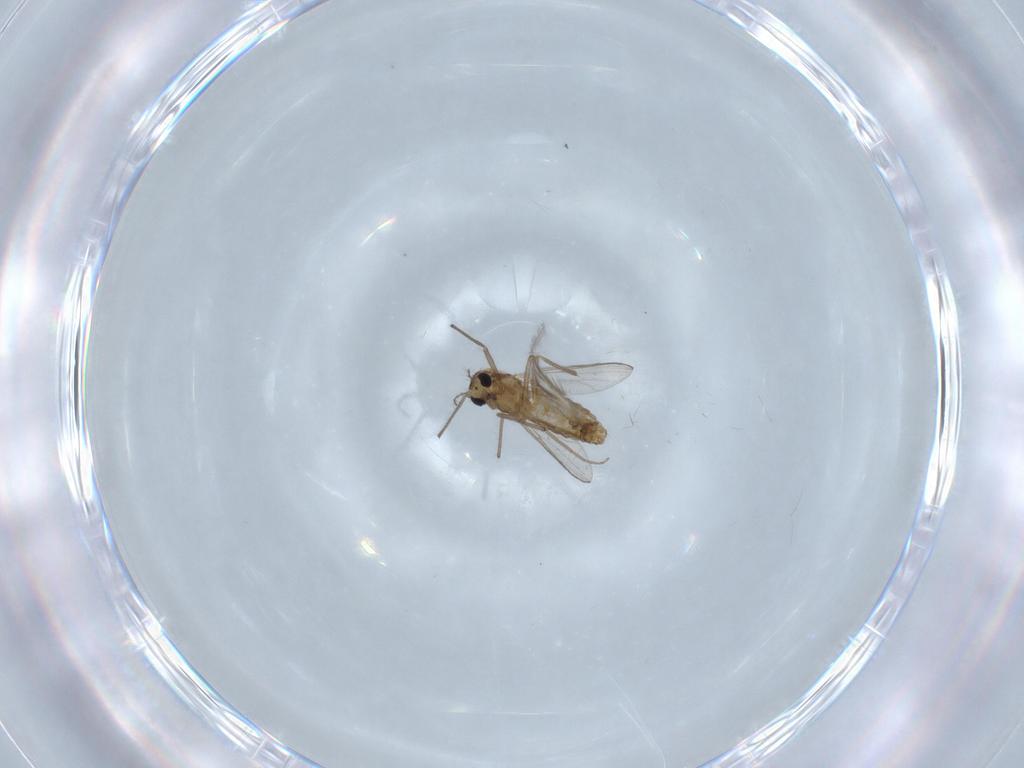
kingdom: Animalia
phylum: Arthropoda
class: Insecta
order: Diptera
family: Chironomidae
